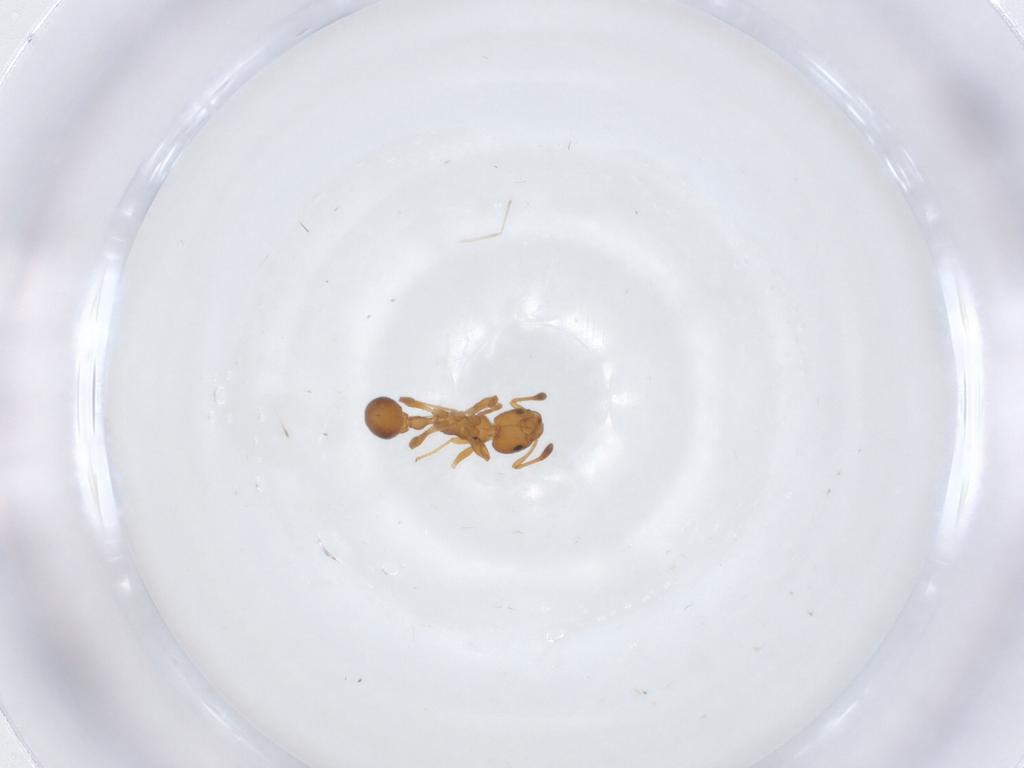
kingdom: Animalia
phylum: Arthropoda
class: Insecta
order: Hymenoptera
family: Formicidae
